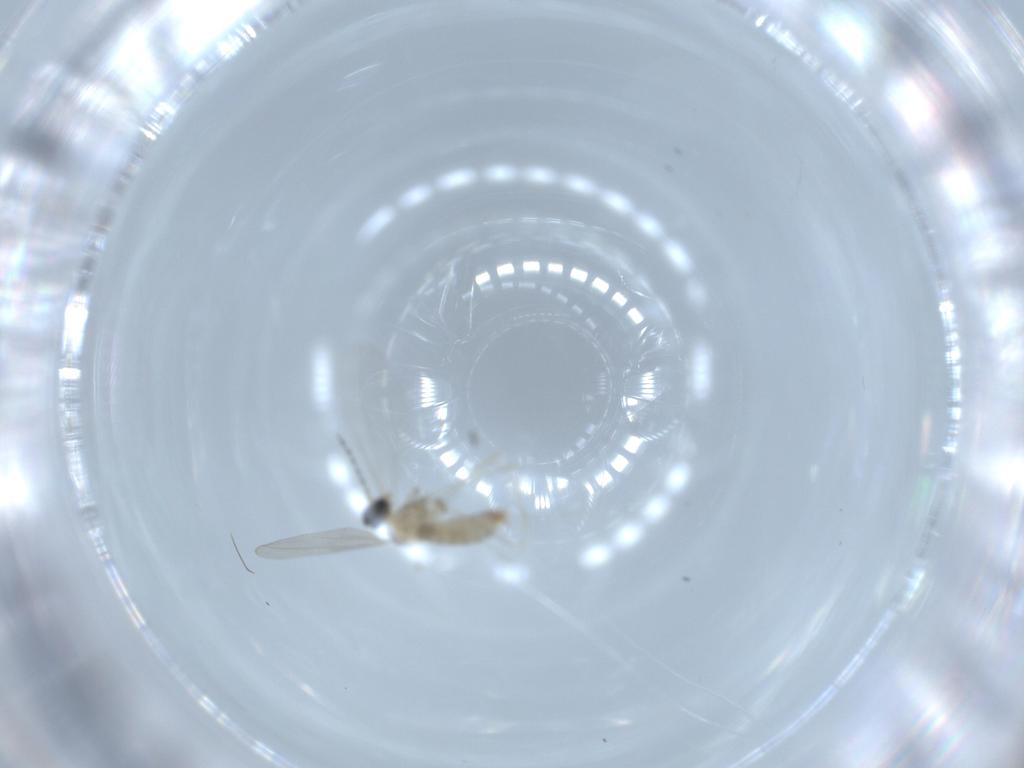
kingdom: Animalia
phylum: Arthropoda
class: Insecta
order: Diptera
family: Cecidomyiidae
